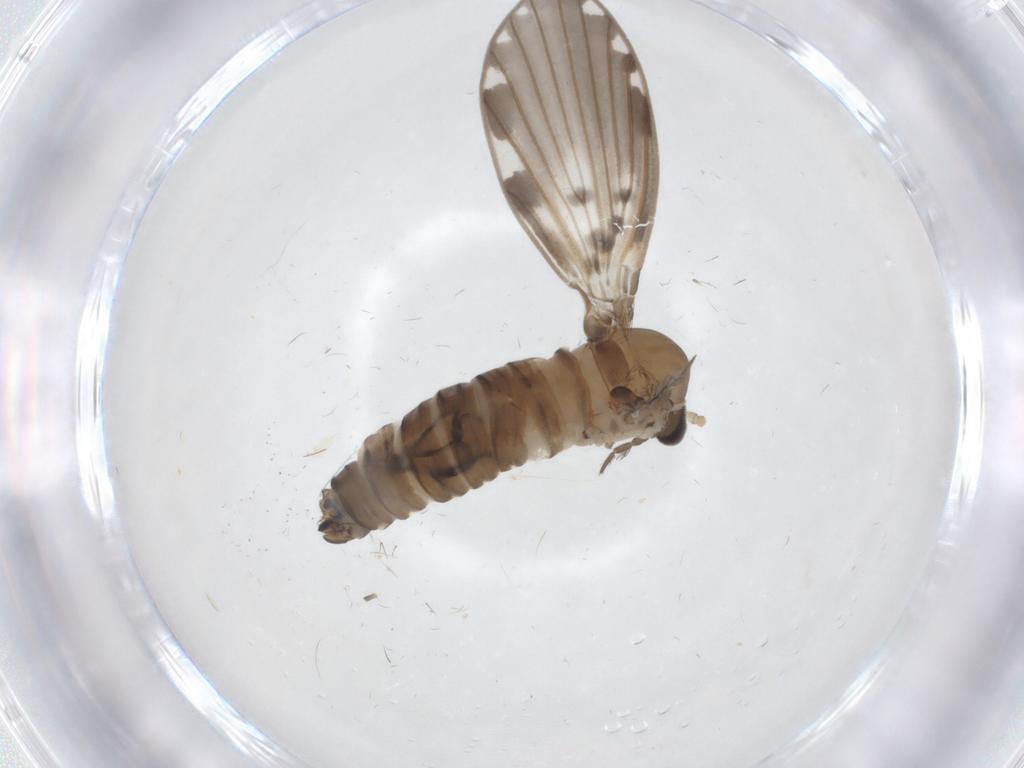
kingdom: Animalia
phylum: Arthropoda
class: Insecta
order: Diptera
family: Psychodidae
